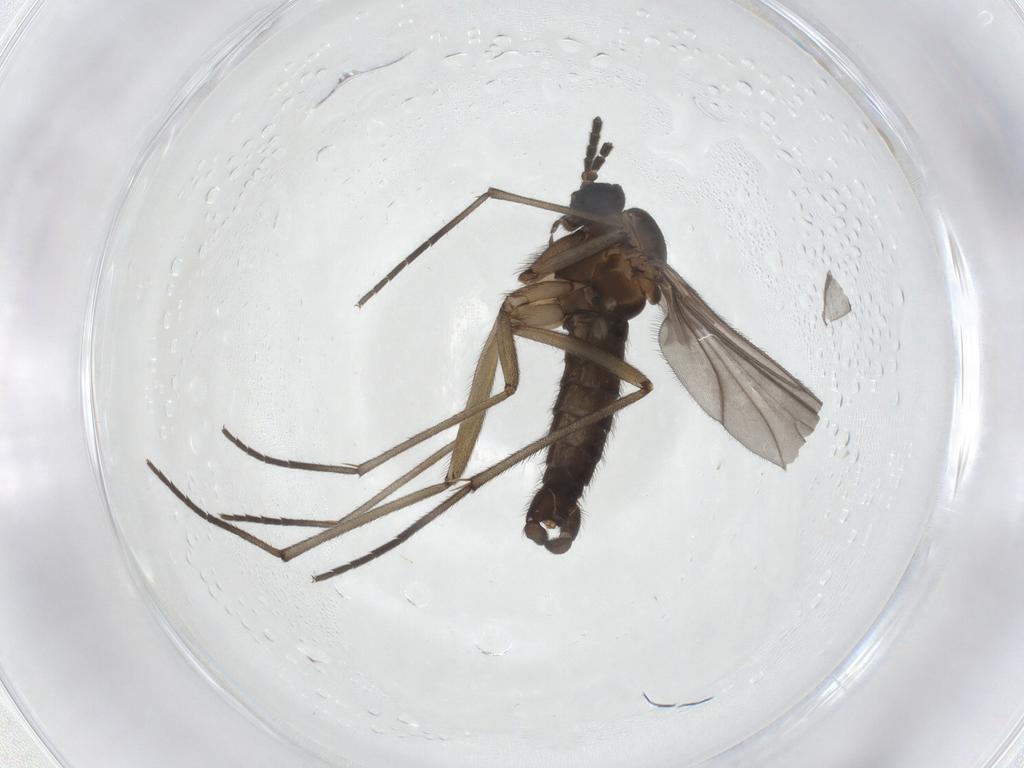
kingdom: Animalia
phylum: Arthropoda
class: Insecta
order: Diptera
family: Sciaridae
